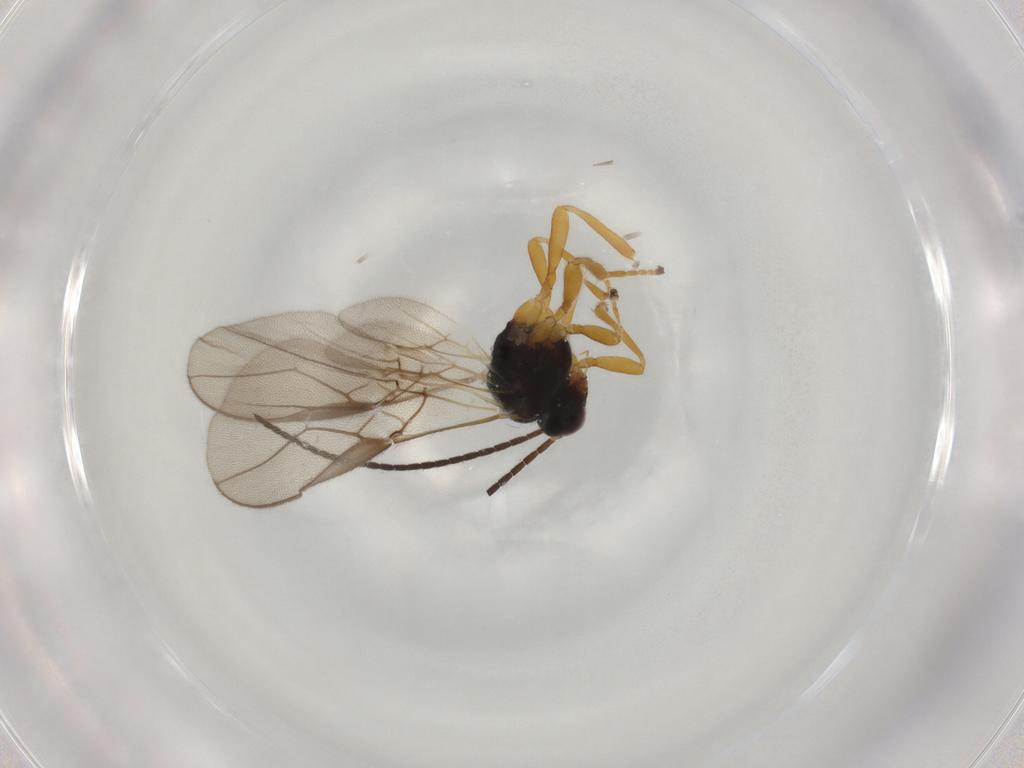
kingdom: Animalia
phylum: Arthropoda
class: Insecta
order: Hymenoptera
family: Braconidae
